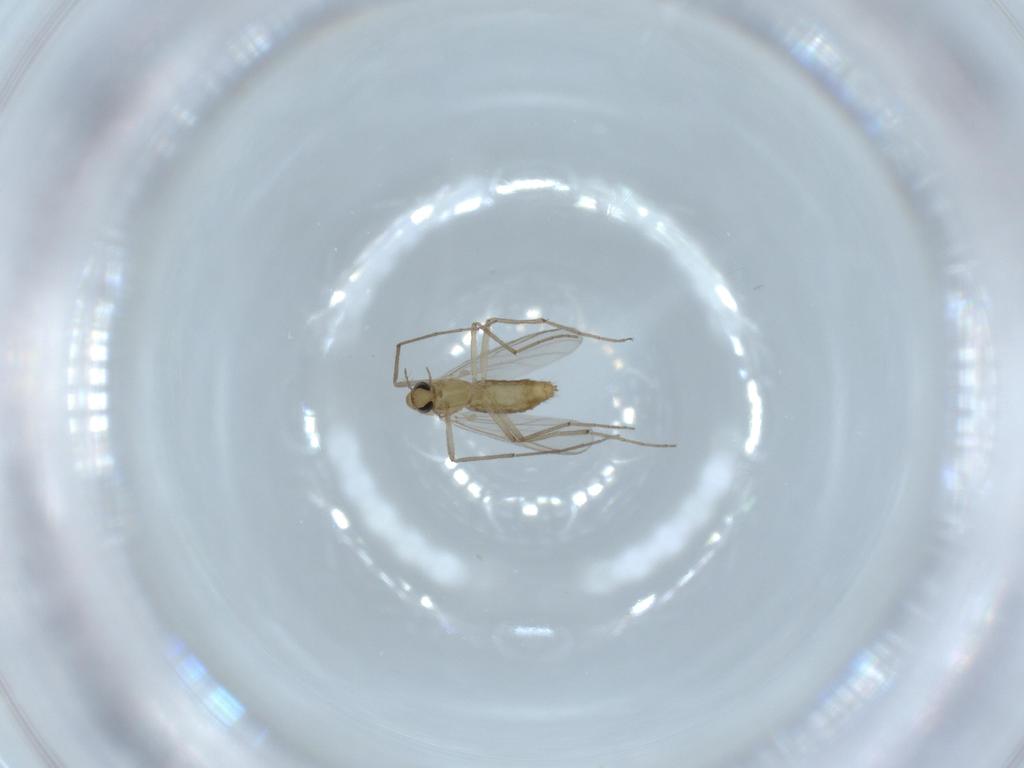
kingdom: Animalia
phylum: Arthropoda
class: Insecta
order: Diptera
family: Chironomidae
